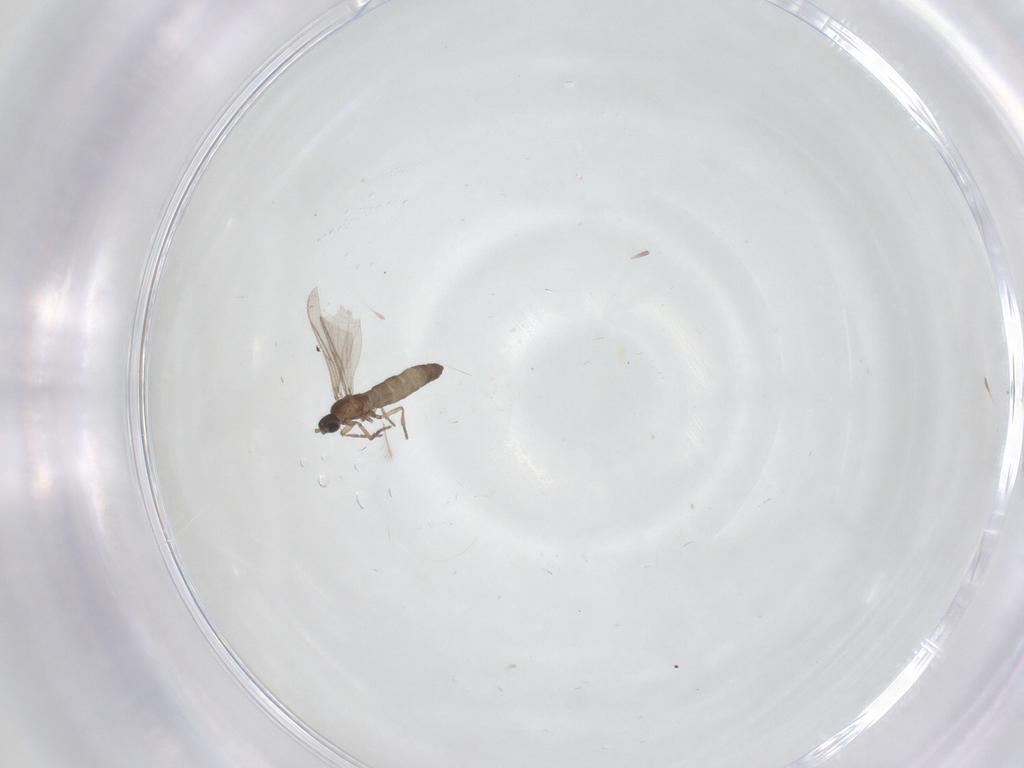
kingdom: Animalia
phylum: Arthropoda
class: Insecta
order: Diptera
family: Sciaridae
